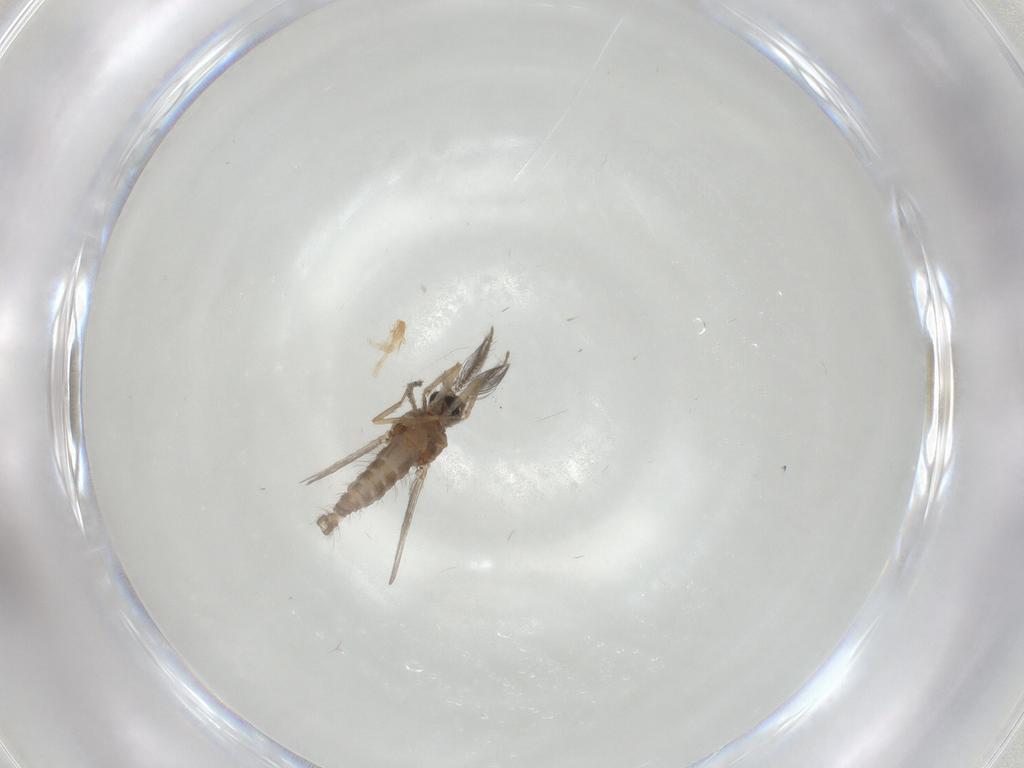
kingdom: Animalia
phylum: Arthropoda
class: Insecta
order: Diptera
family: Ceratopogonidae
